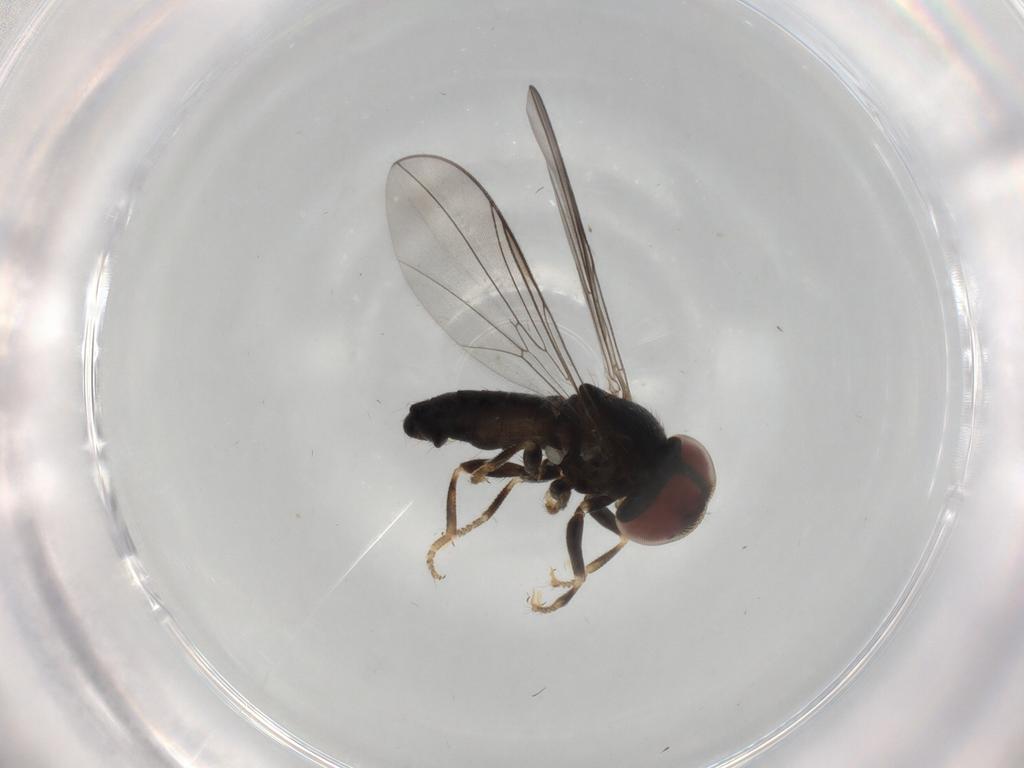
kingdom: Animalia
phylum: Arthropoda
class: Insecta
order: Diptera
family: Pipunculidae
